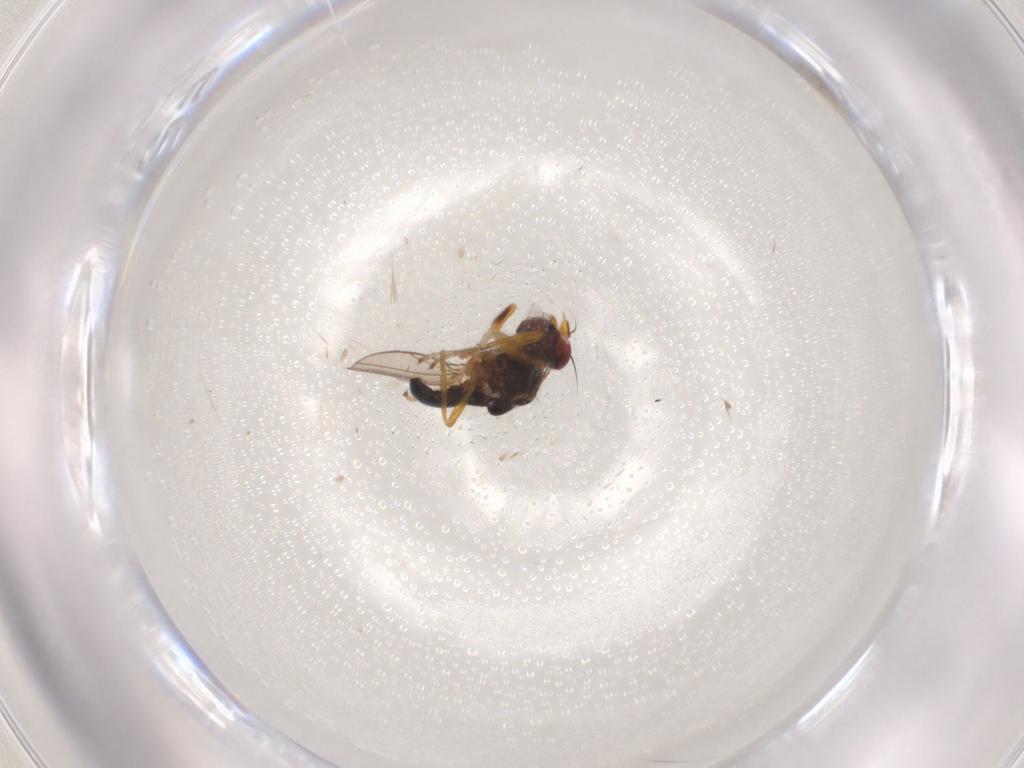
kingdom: Animalia
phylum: Arthropoda
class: Insecta
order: Diptera
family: Ephydridae
